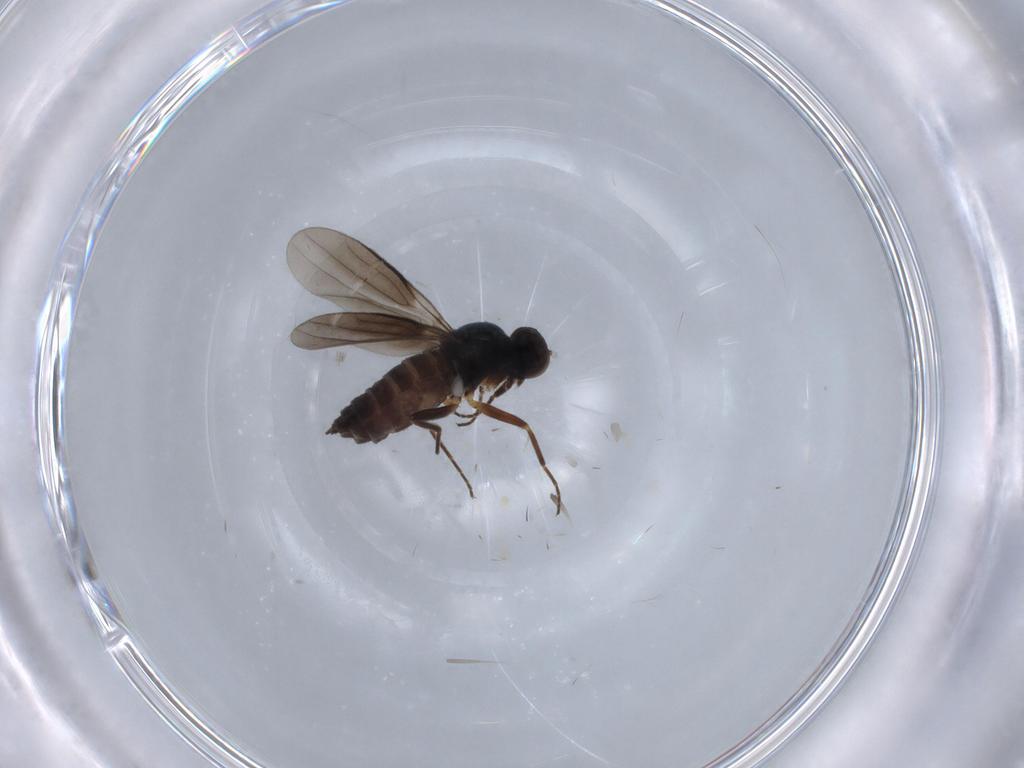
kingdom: Animalia
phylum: Arthropoda
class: Insecta
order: Diptera
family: Hybotidae
